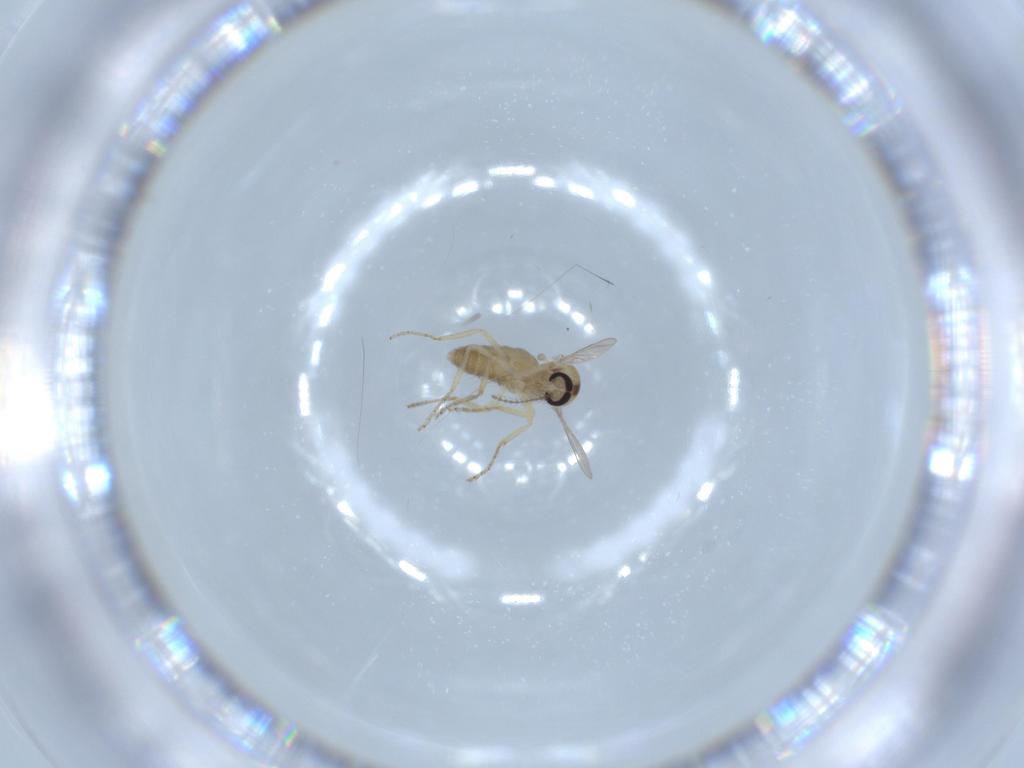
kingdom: Animalia
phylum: Arthropoda
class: Insecta
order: Diptera
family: Ceratopogonidae
